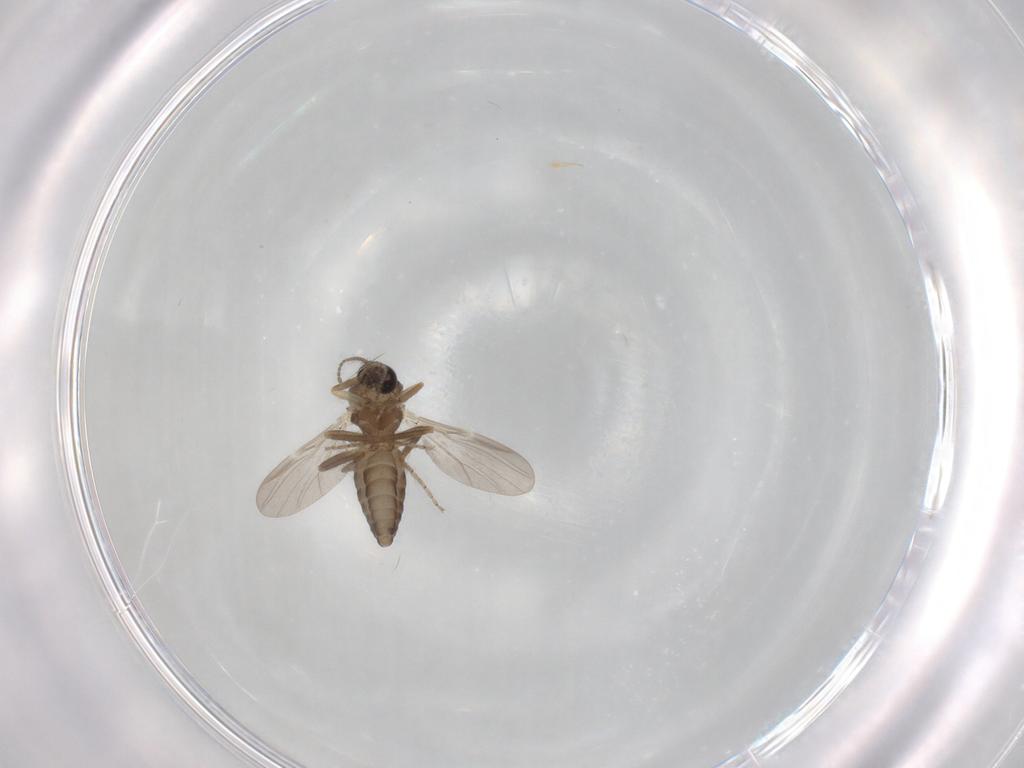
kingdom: Animalia
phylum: Arthropoda
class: Insecta
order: Diptera
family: Ceratopogonidae
